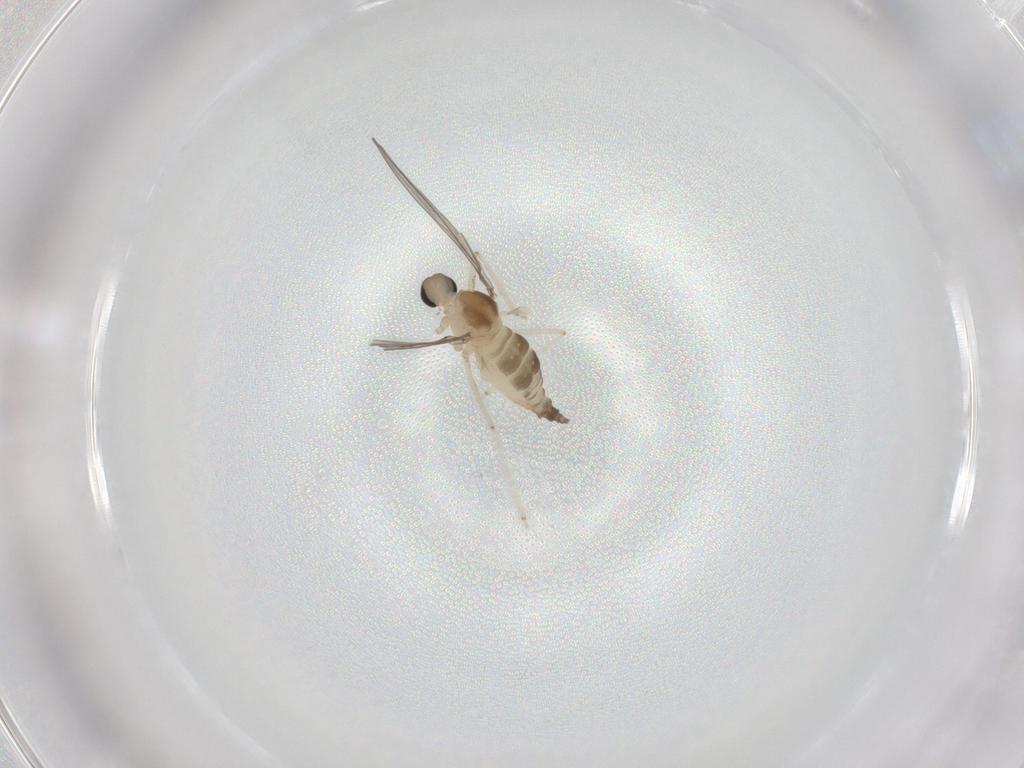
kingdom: Animalia
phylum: Arthropoda
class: Insecta
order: Diptera
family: Cecidomyiidae
